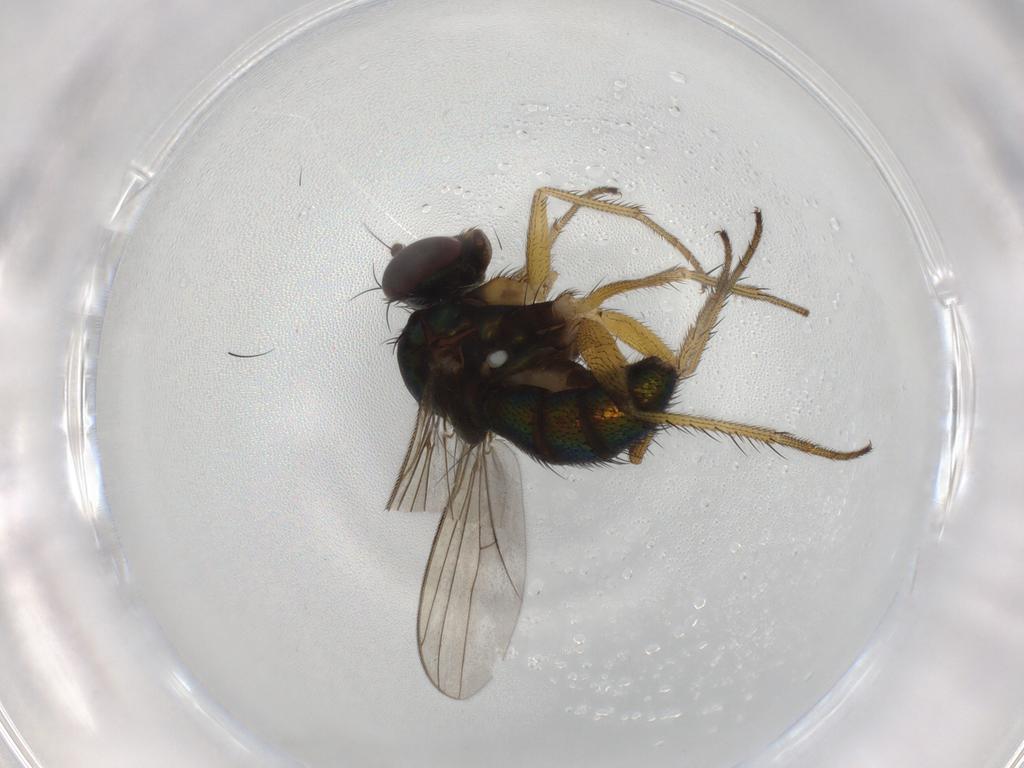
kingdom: Animalia
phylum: Arthropoda
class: Insecta
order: Diptera
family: Dolichopodidae
